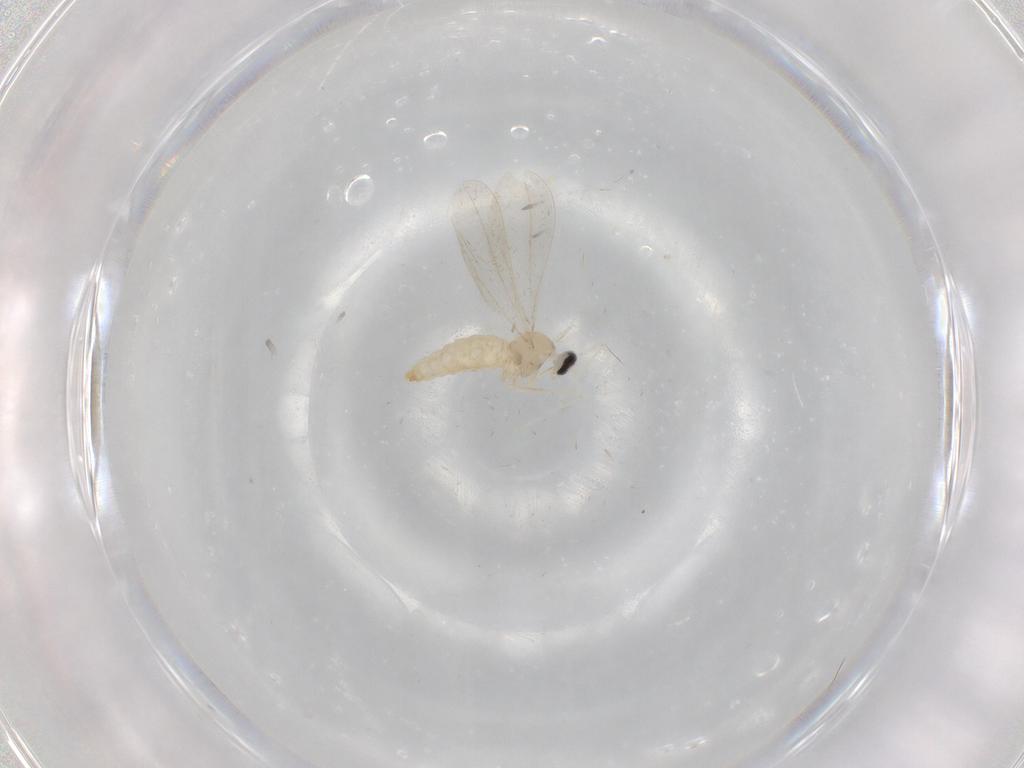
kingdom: Animalia
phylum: Arthropoda
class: Insecta
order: Diptera
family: Cecidomyiidae
